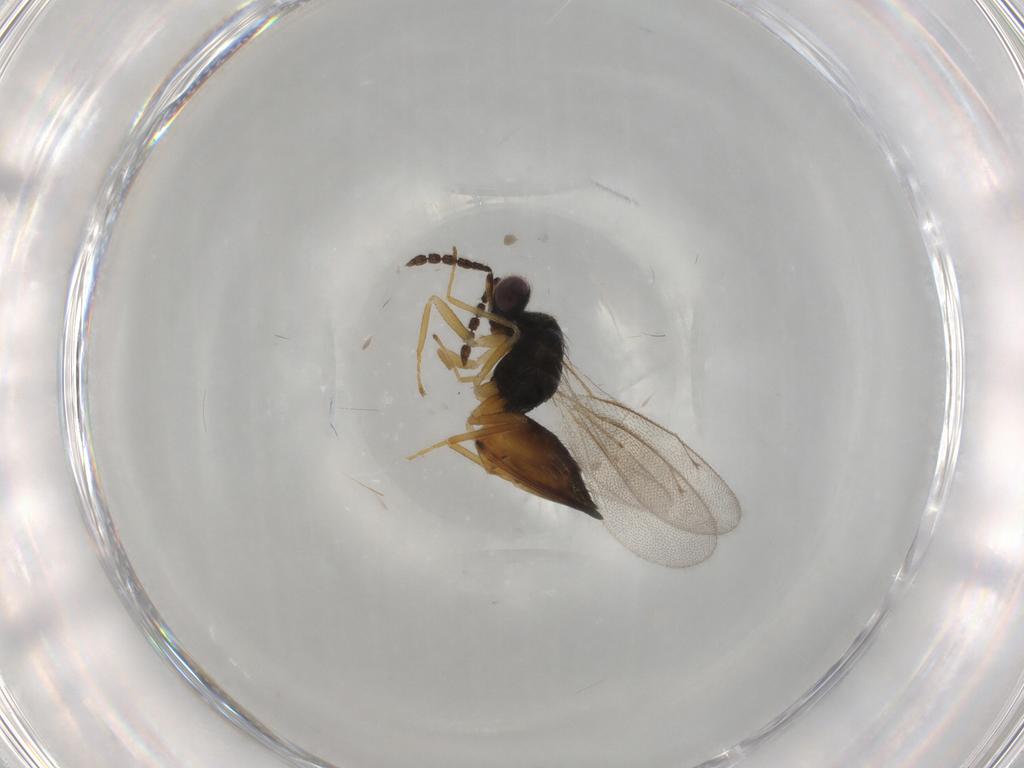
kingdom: Animalia
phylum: Arthropoda
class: Insecta
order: Hymenoptera
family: Eulophidae
